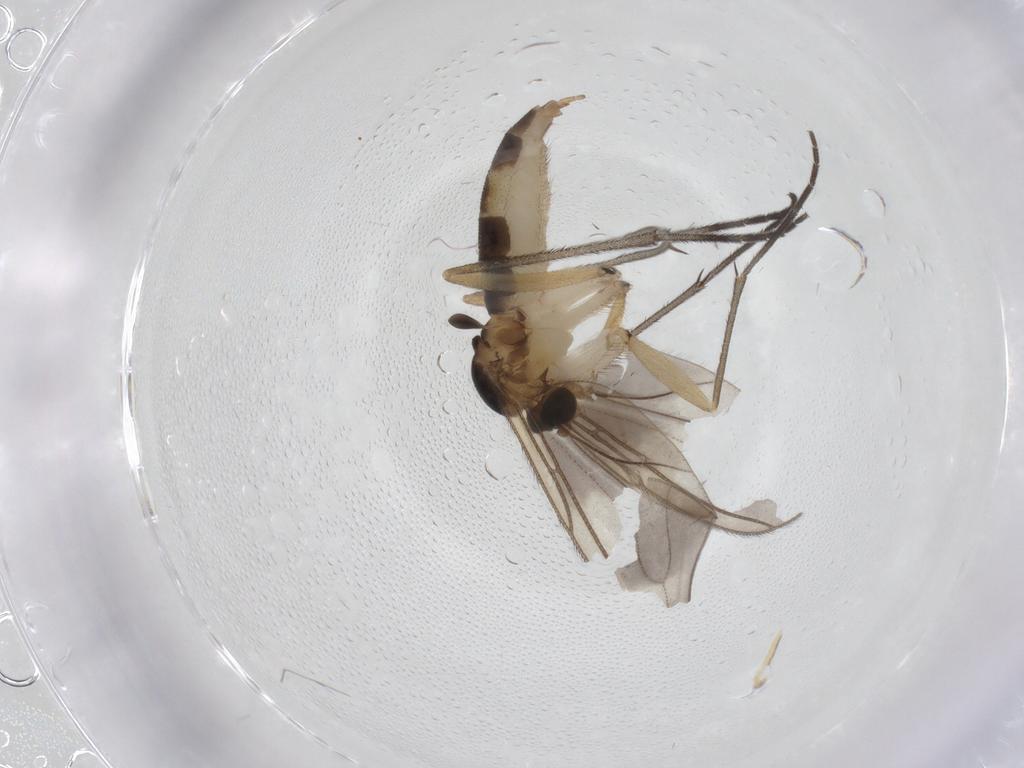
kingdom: Animalia
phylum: Arthropoda
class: Insecta
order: Diptera
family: Sciaridae
